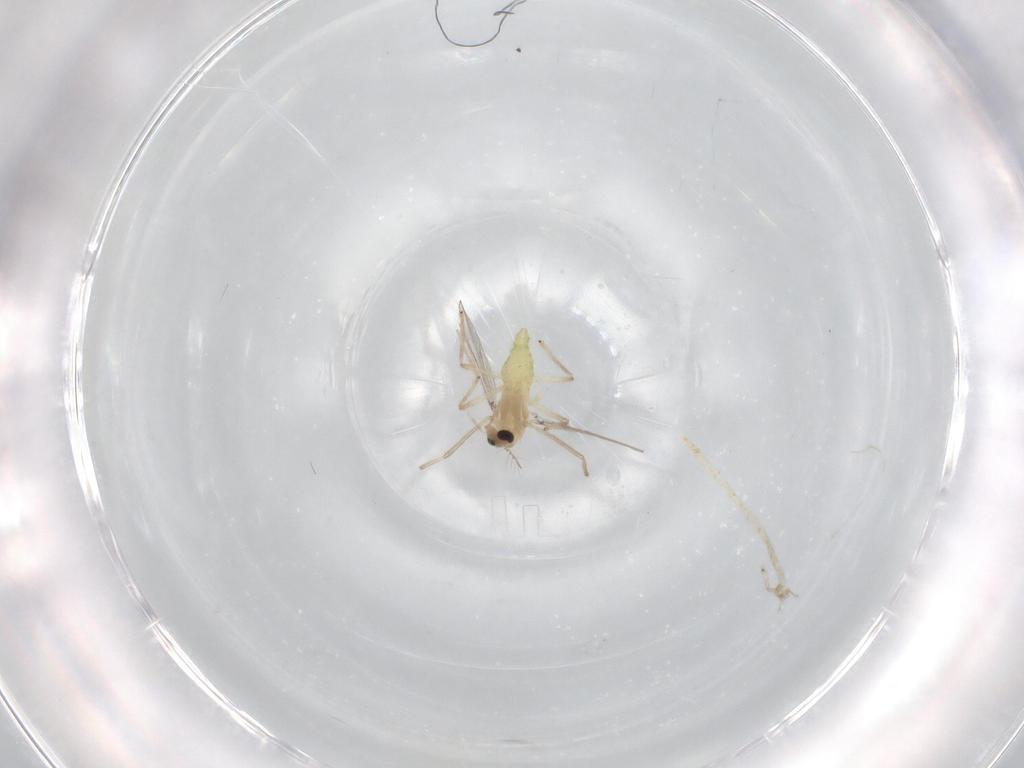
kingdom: Animalia
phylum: Arthropoda
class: Insecta
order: Diptera
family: Chironomidae
